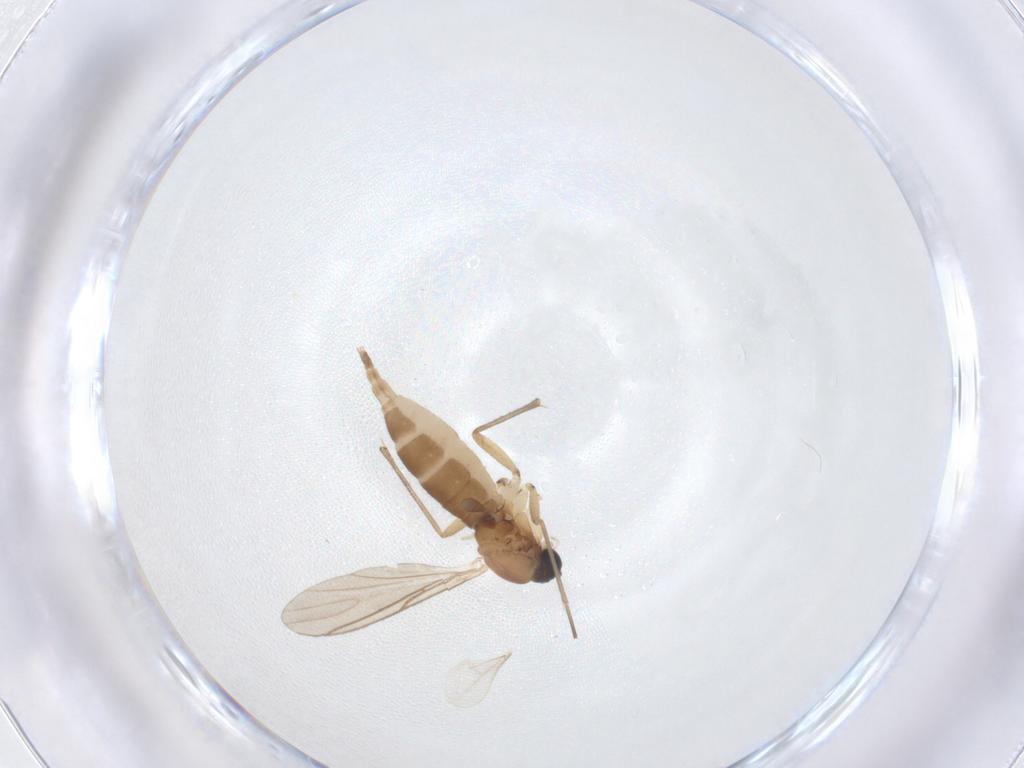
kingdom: Animalia
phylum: Arthropoda
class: Insecta
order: Diptera
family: Sciaridae
